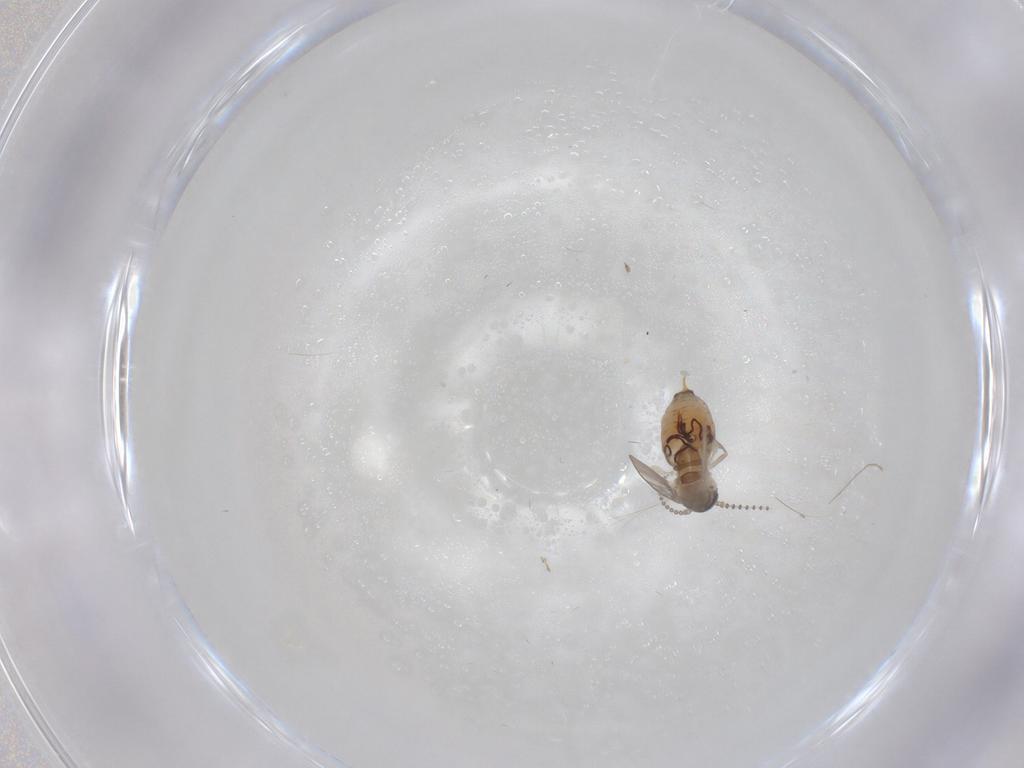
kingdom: Animalia
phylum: Arthropoda
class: Insecta
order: Diptera
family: Psychodidae
